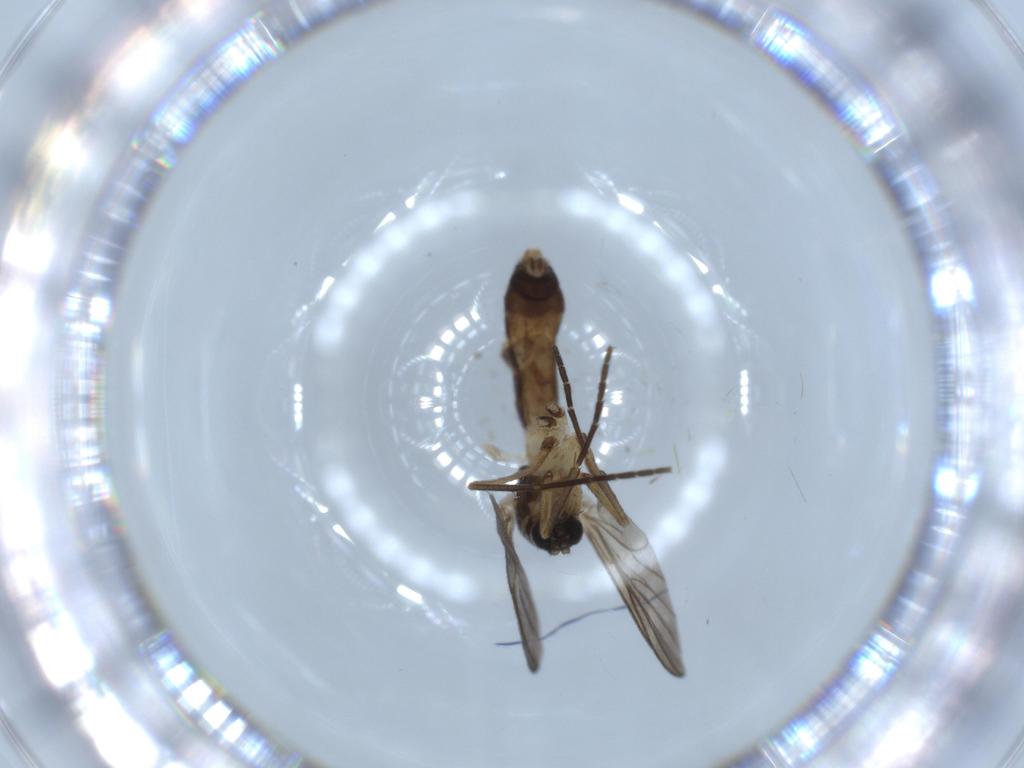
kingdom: Animalia
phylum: Arthropoda
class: Insecta
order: Diptera
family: Mycetophilidae
